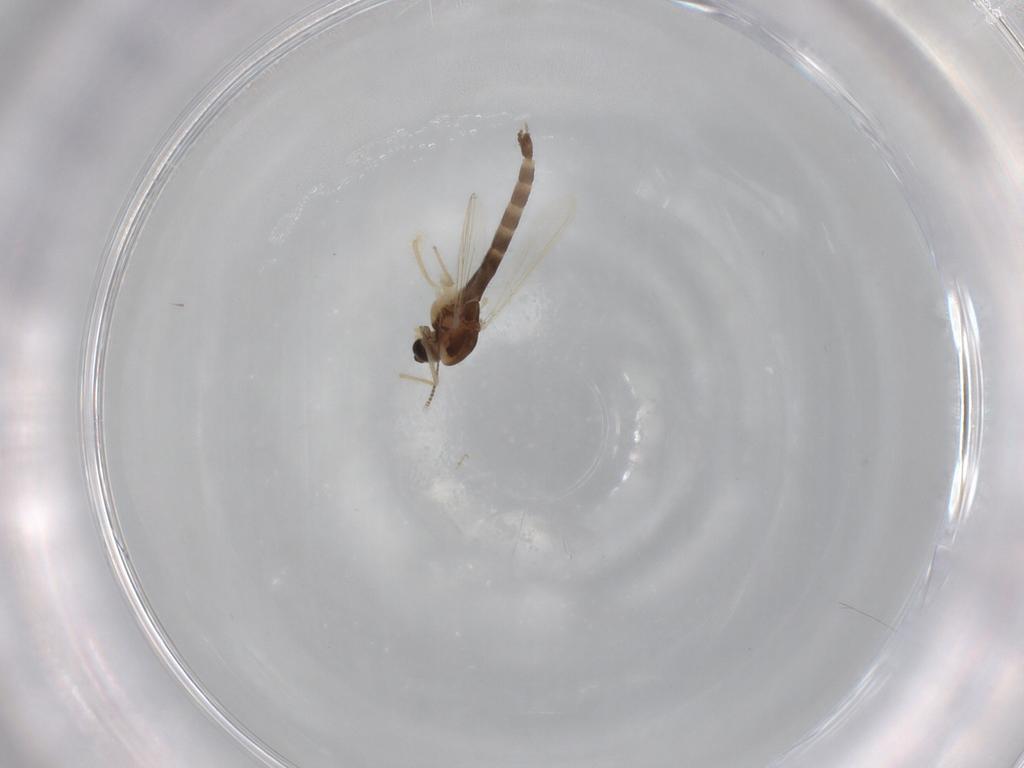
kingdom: Animalia
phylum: Arthropoda
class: Insecta
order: Diptera
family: Chironomidae
